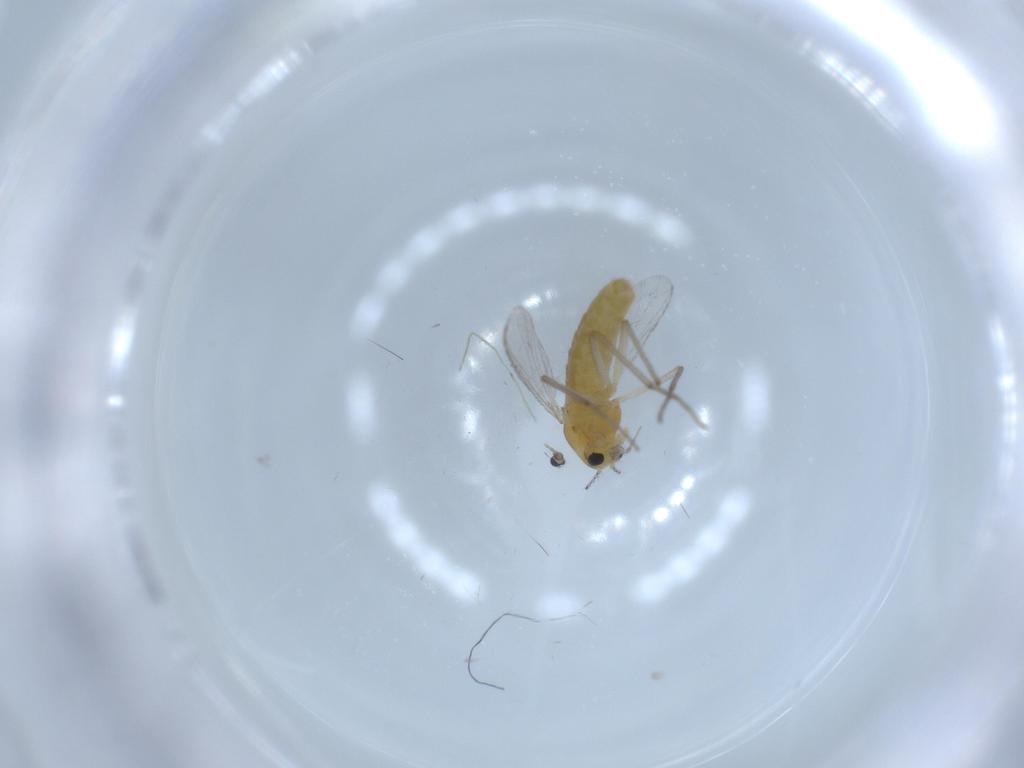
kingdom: Animalia
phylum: Arthropoda
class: Insecta
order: Diptera
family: Chironomidae
